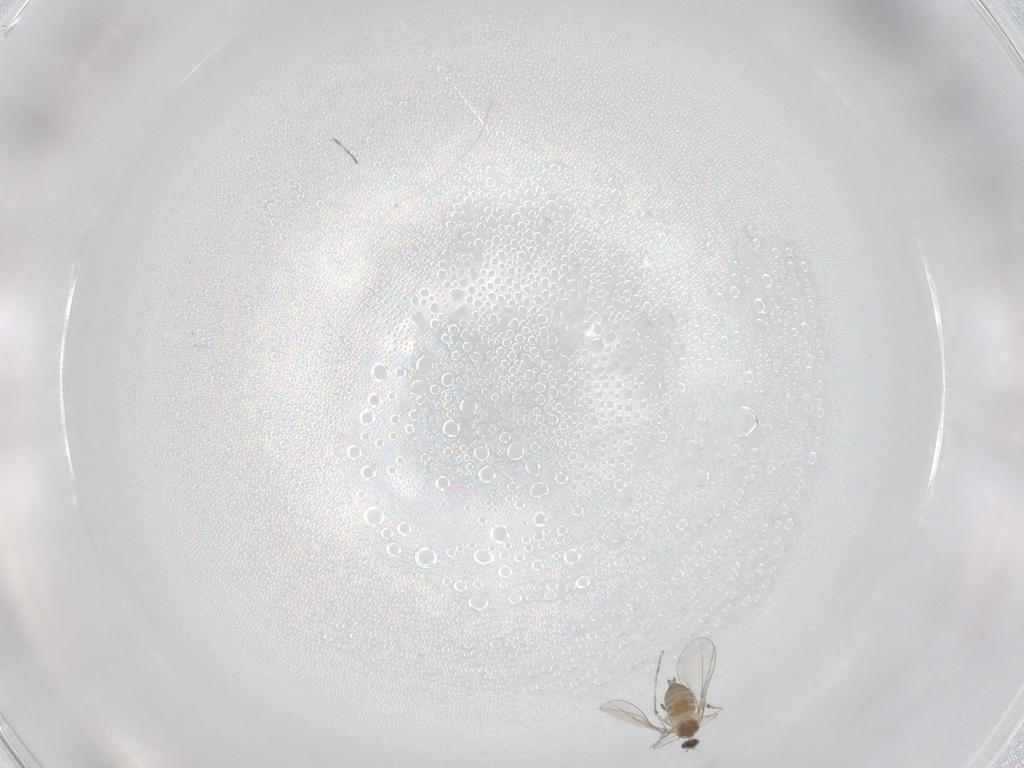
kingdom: Animalia
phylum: Arthropoda
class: Insecta
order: Diptera
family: Cecidomyiidae
